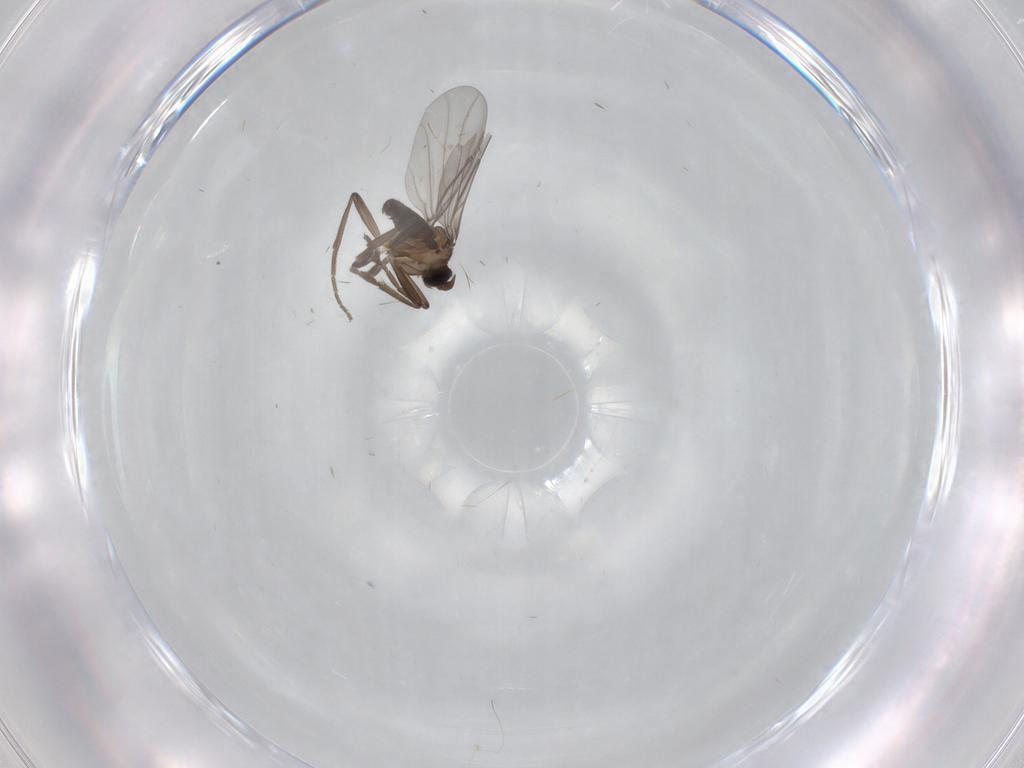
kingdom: Animalia
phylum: Arthropoda
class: Insecta
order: Diptera
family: Phoridae
